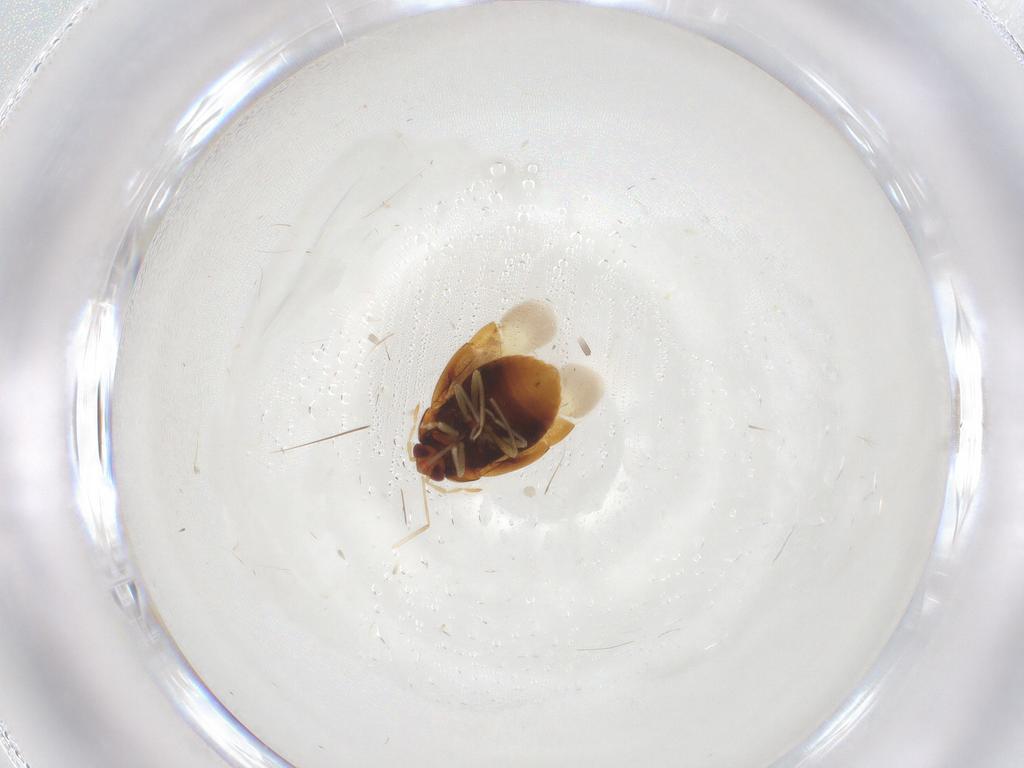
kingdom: Animalia
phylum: Arthropoda
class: Insecta
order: Hemiptera
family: Anthocoridae
